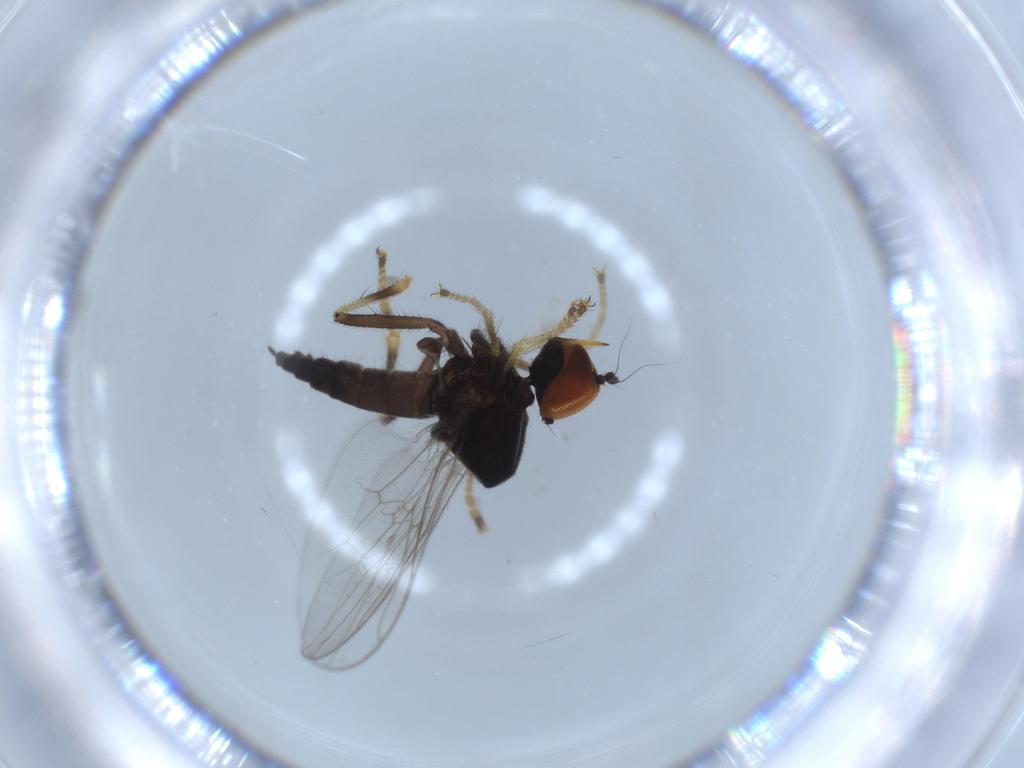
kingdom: Animalia
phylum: Arthropoda
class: Insecta
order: Diptera
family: Hybotidae
